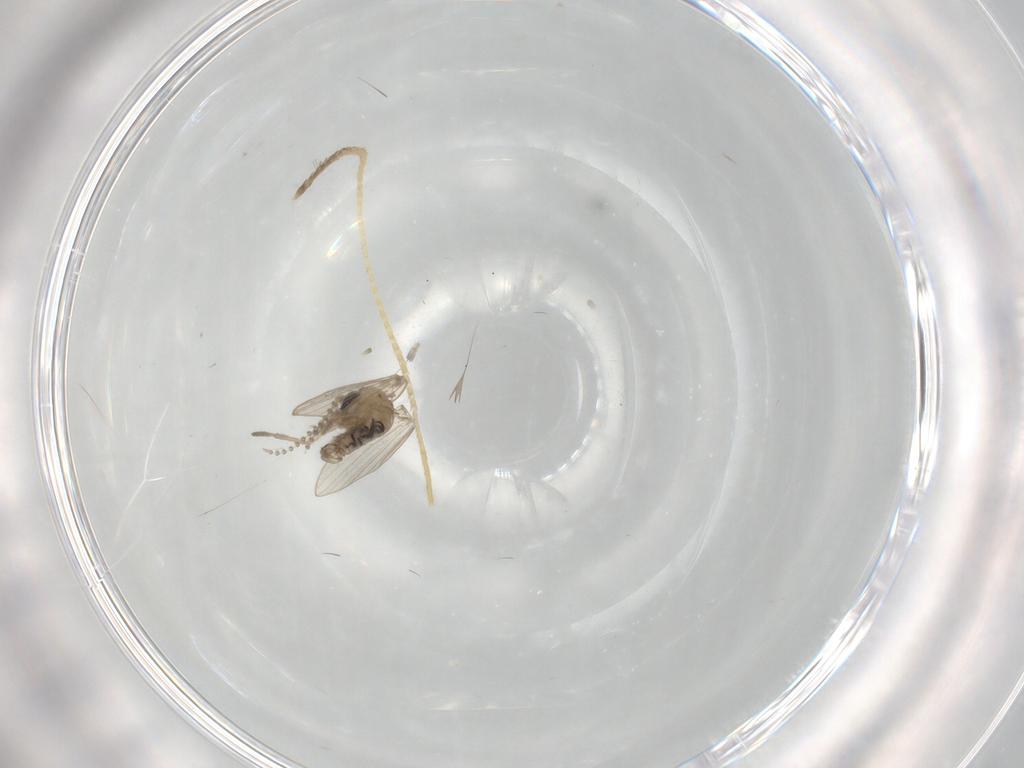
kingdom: Animalia
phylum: Arthropoda
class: Insecta
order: Diptera
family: Psychodidae
